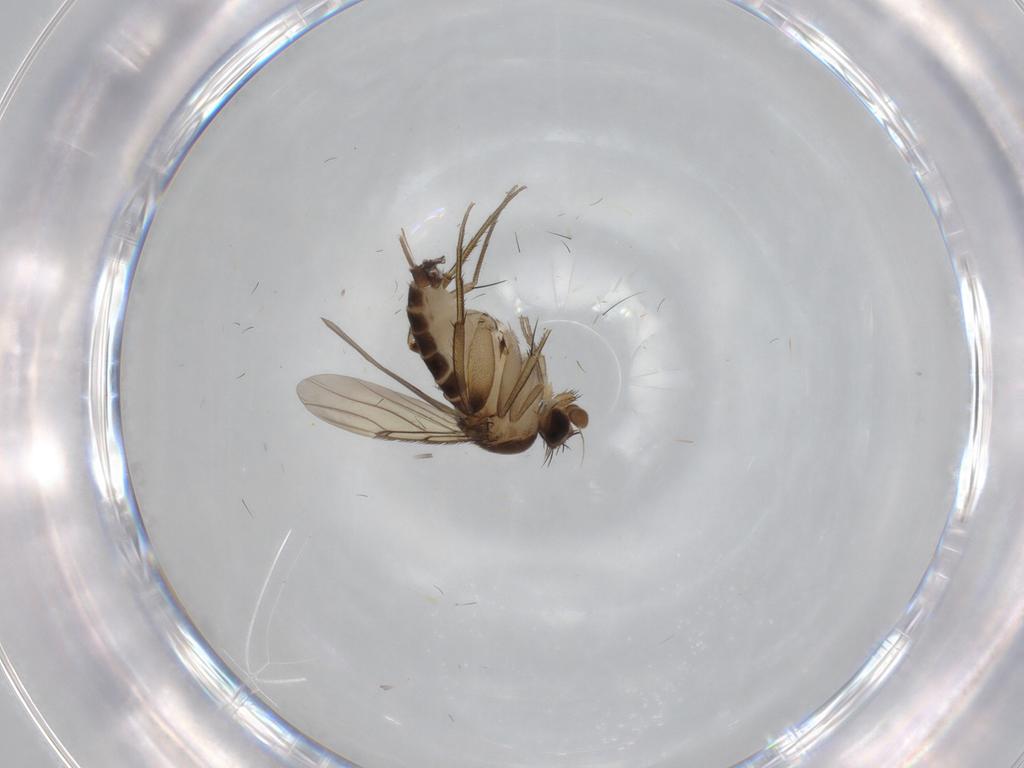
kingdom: Animalia
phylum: Arthropoda
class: Insecta
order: Diptera
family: Phoridae
